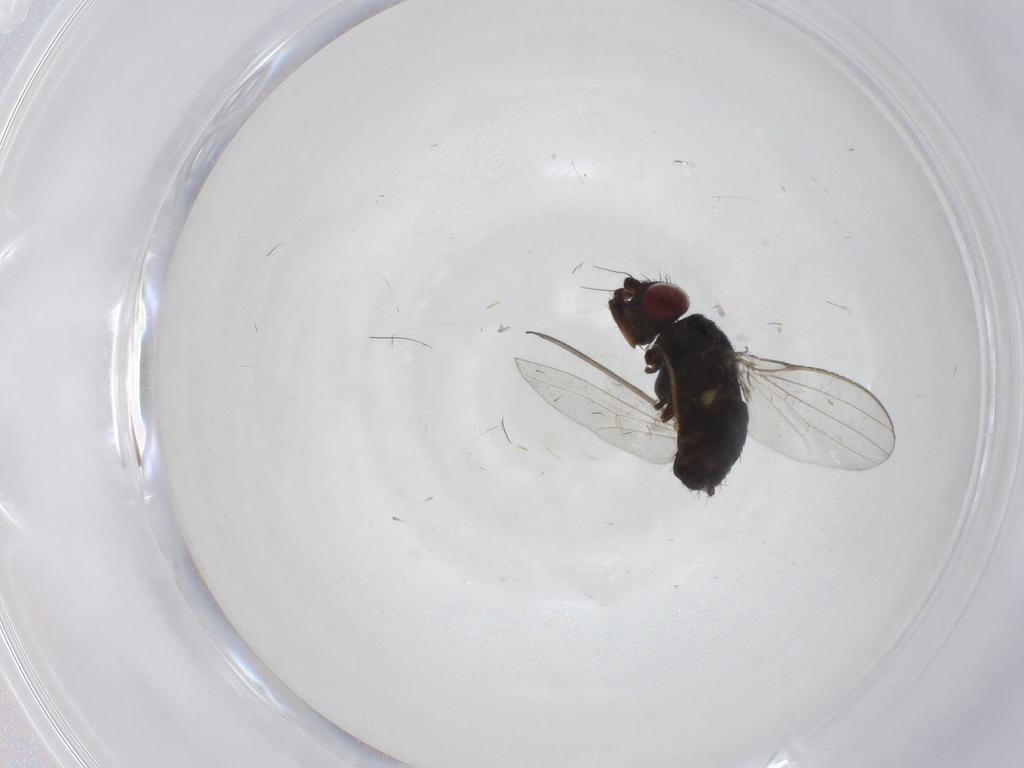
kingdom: Animalia
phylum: Arthropoda
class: Insecta
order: Diptera
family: Milichiidae
